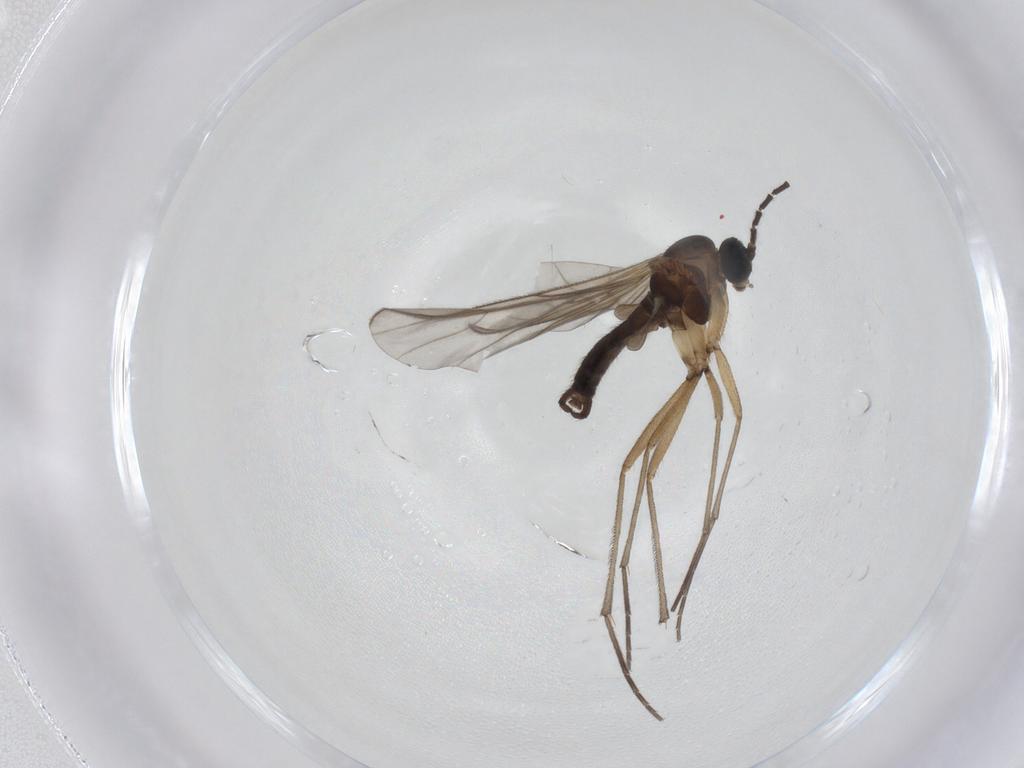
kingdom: Animalia
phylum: Arthropoda
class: Insecta
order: Diptera
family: Sciaridae
